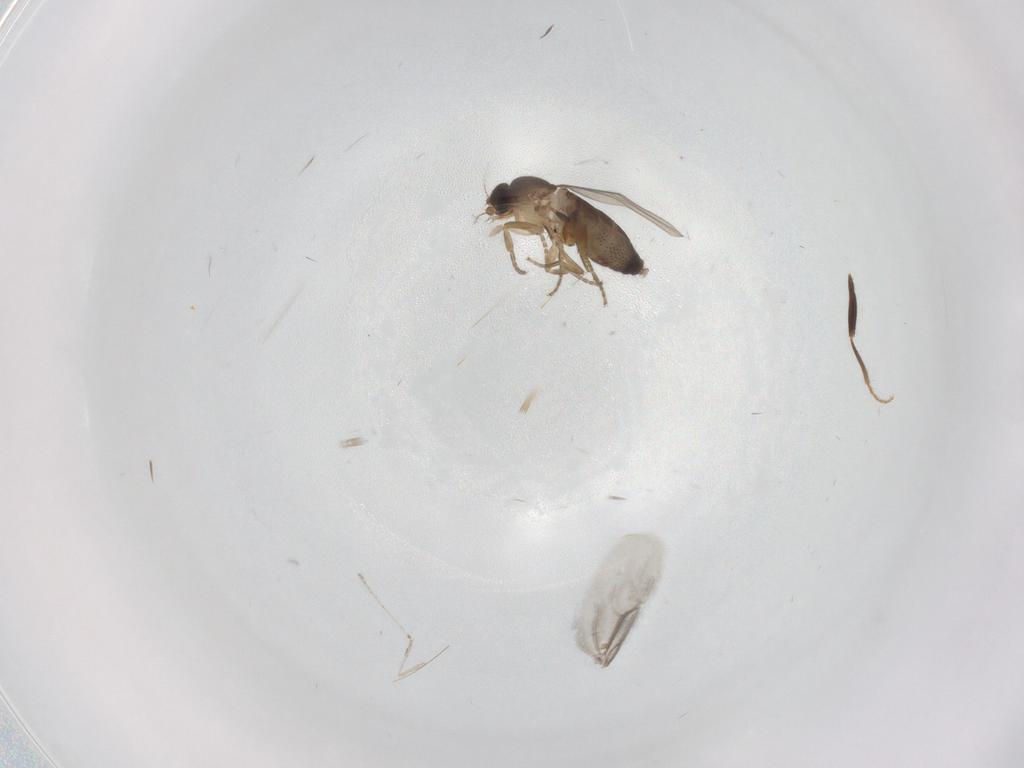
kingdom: Animalia
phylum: Arthropoda
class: Insecta
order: Diptera
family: Phoridae
